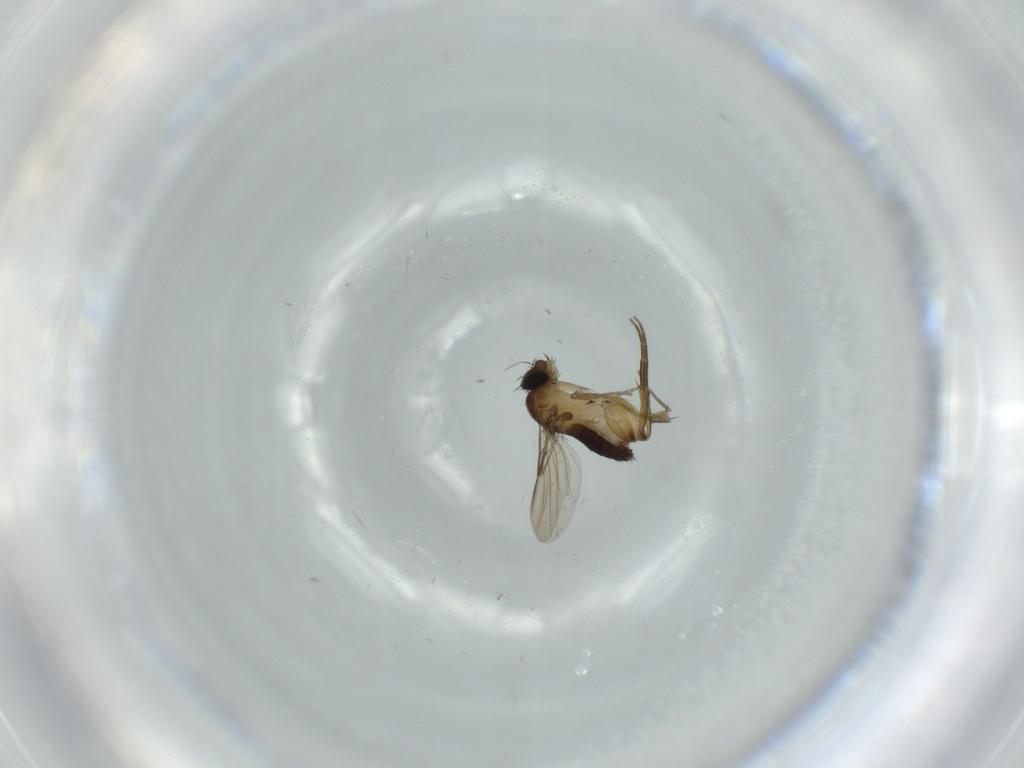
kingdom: Animalia
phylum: Arthropoda
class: Insecta
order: Diptera
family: Phoridae
